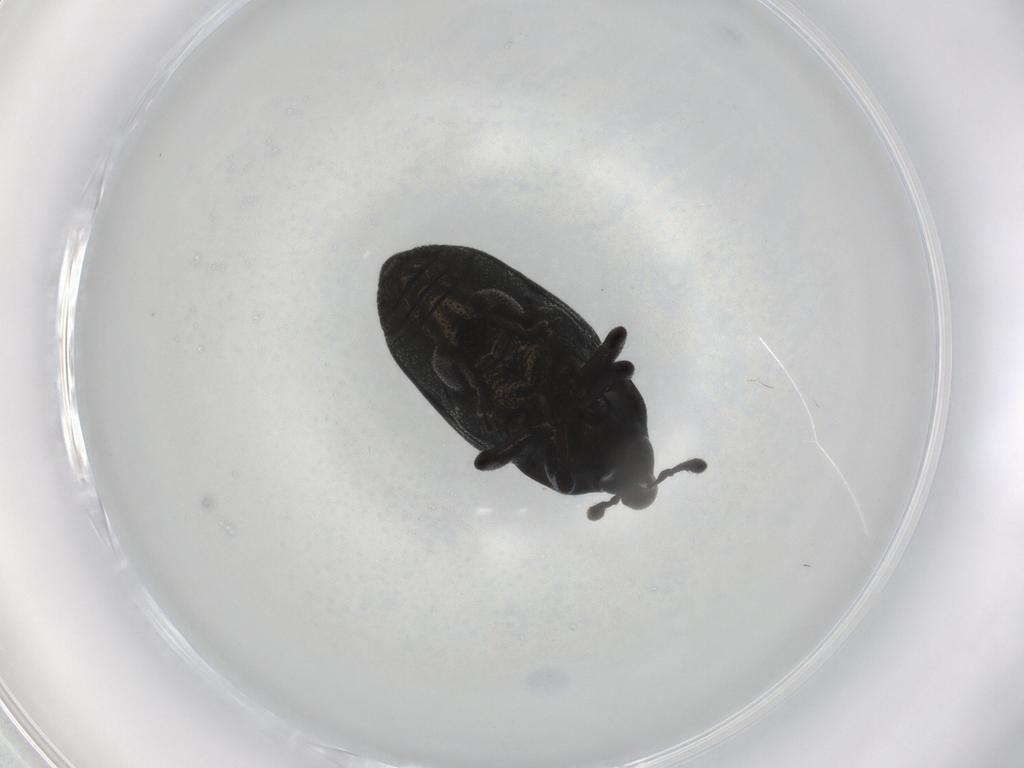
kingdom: Animalia
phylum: Arthropoda
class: Insecta
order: Coleoptera
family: Curculionidae
